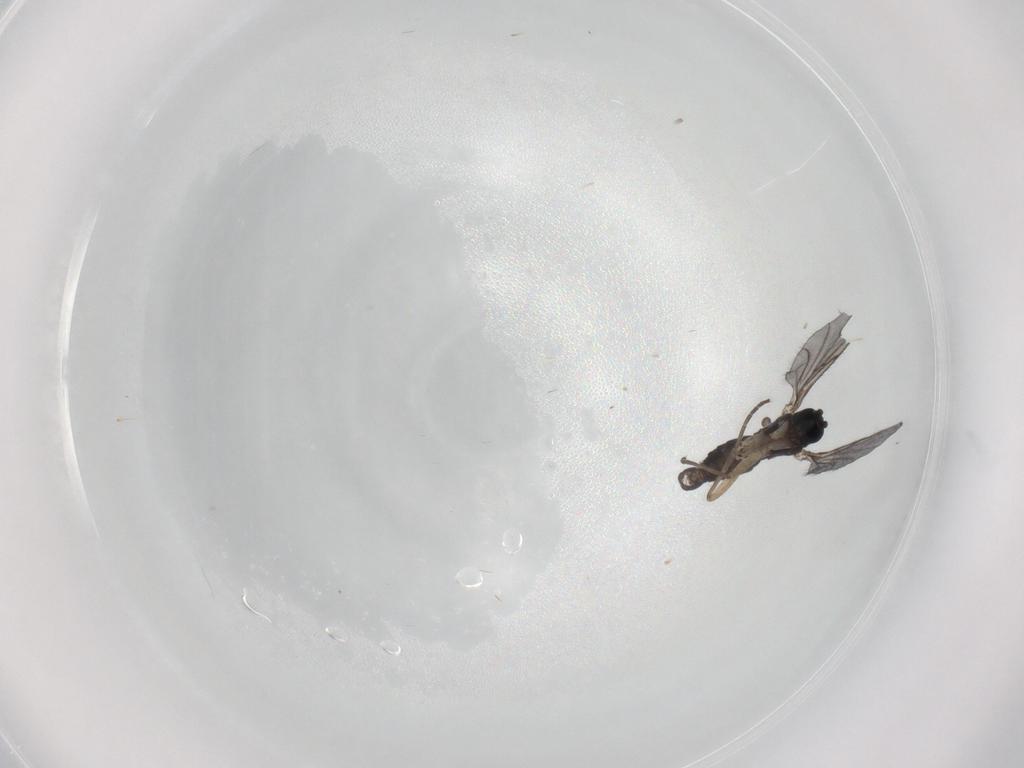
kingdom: Animalia
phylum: Arthropoda
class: Insecta
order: Diptera
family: Sciaridae
